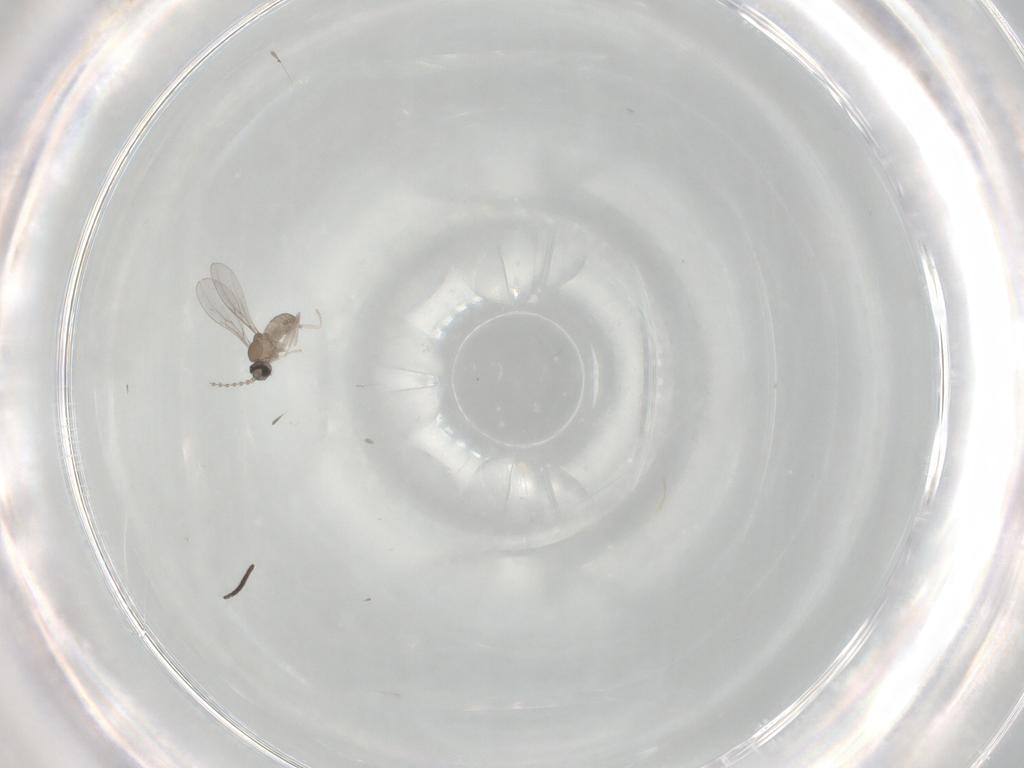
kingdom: Animalia
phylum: Arthropoda
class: Insecta
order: Diptera
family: Cecidomyiidae
